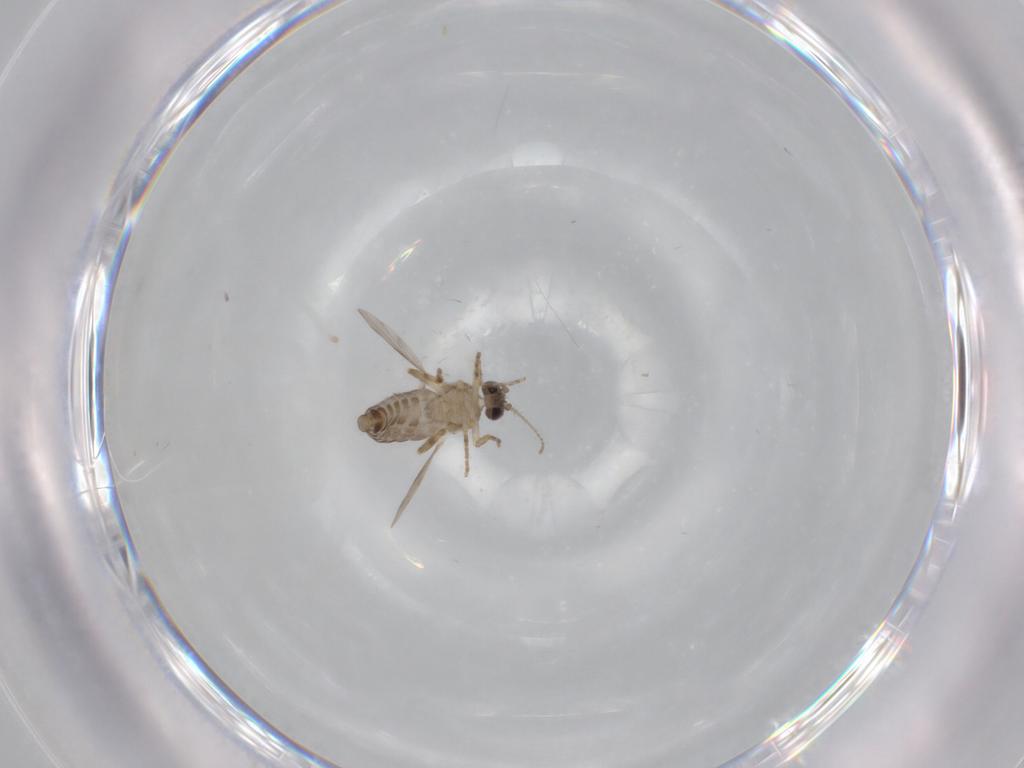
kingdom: Animalia
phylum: Arthropoda
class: Insecta
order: Diptera
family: Ceratopogonidae
